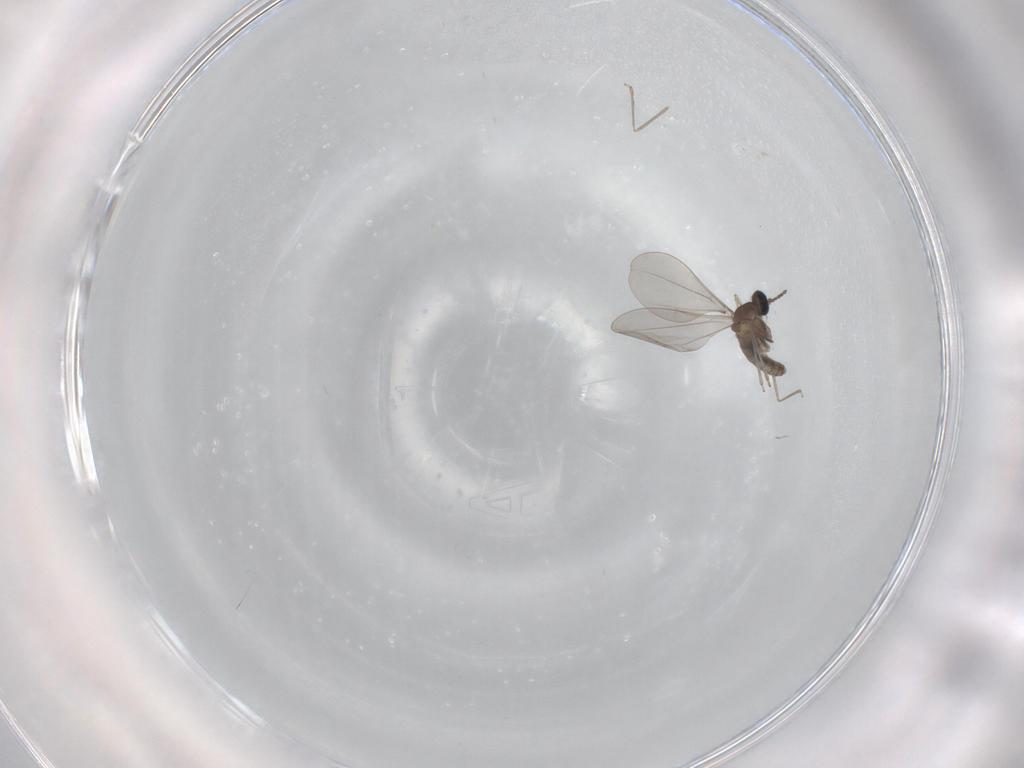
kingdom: Animalia
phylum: Arthropoda
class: Insecta
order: Diptera
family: Cecidomyiidae
